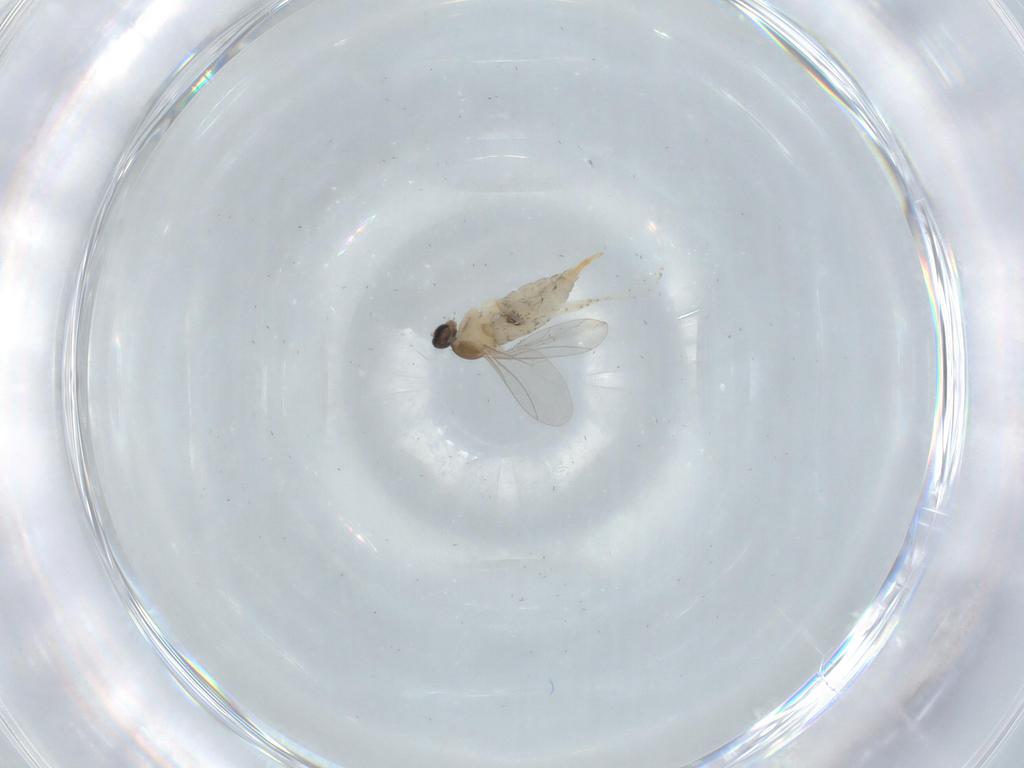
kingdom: Animalia
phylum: Arthropoda
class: Insecta
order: Diptera
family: Cecidomyiidae
